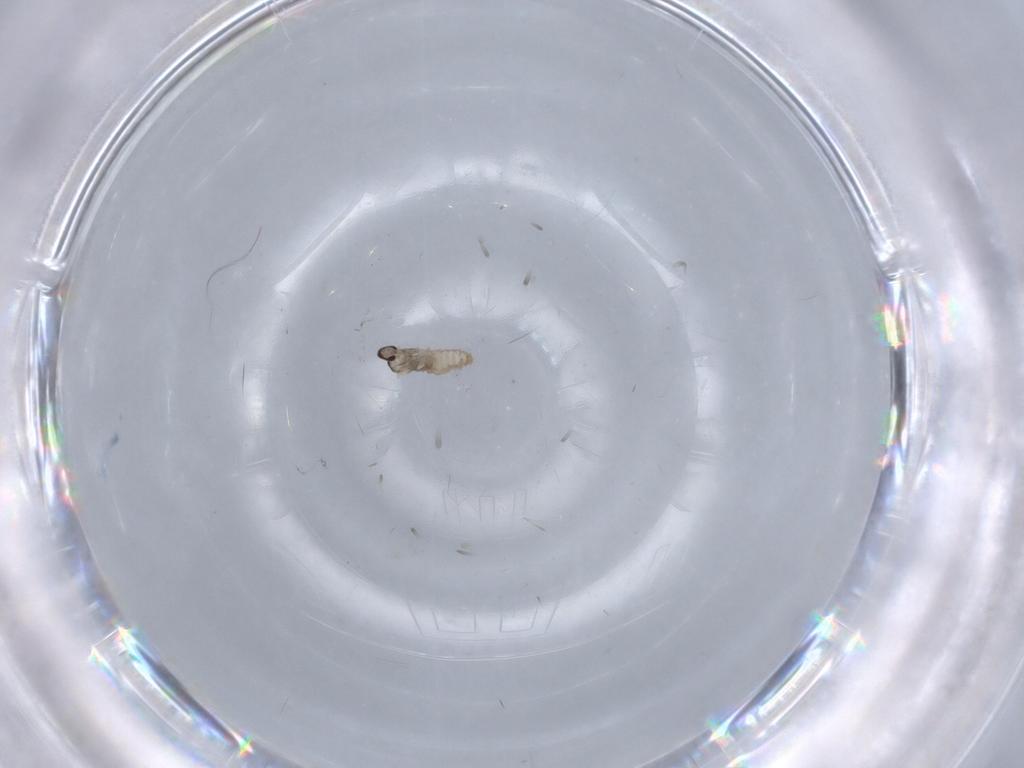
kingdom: Animalia
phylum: Arthropoda
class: Insecta
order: Diptera
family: Cecidomyiidae
